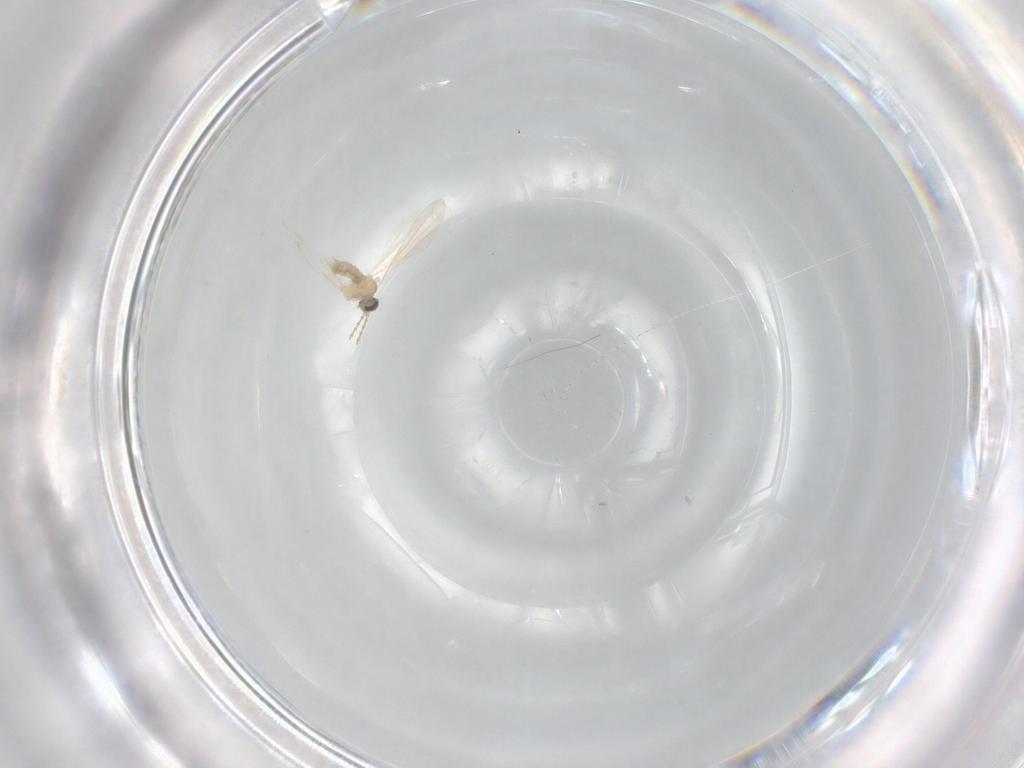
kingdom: Animalia
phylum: Arthropoda
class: Insecta
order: Diptera
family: Cecidomyiidae
